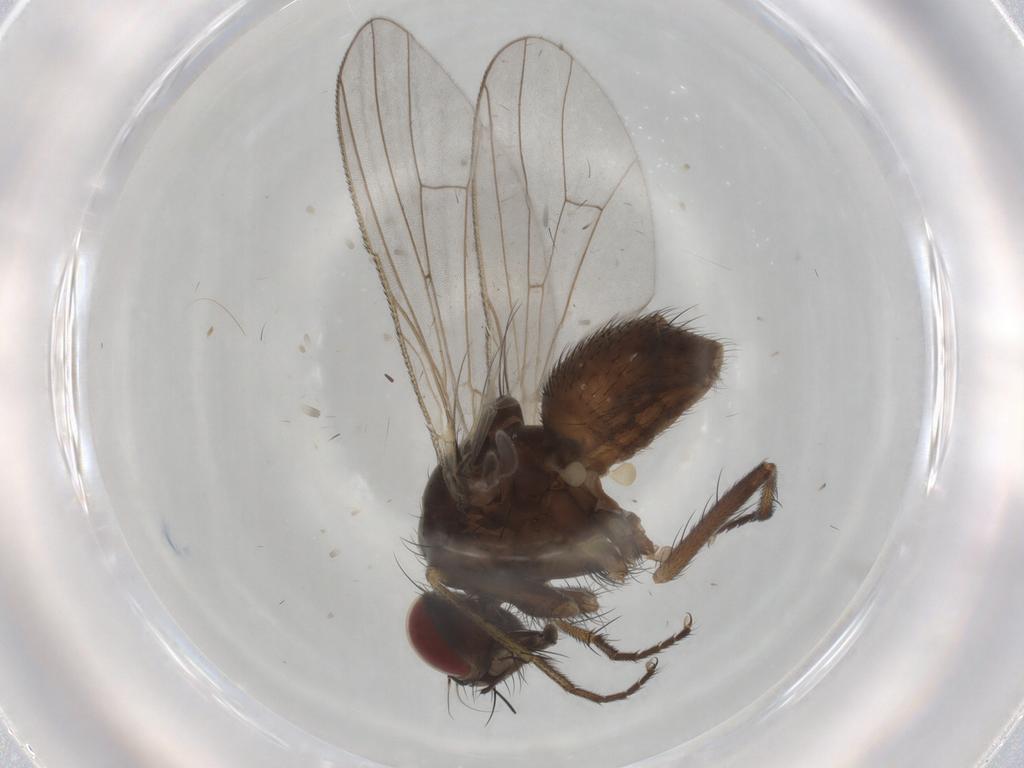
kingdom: Animalia
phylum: Arthropoda
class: Insecta
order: Diptera
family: Muscidae
